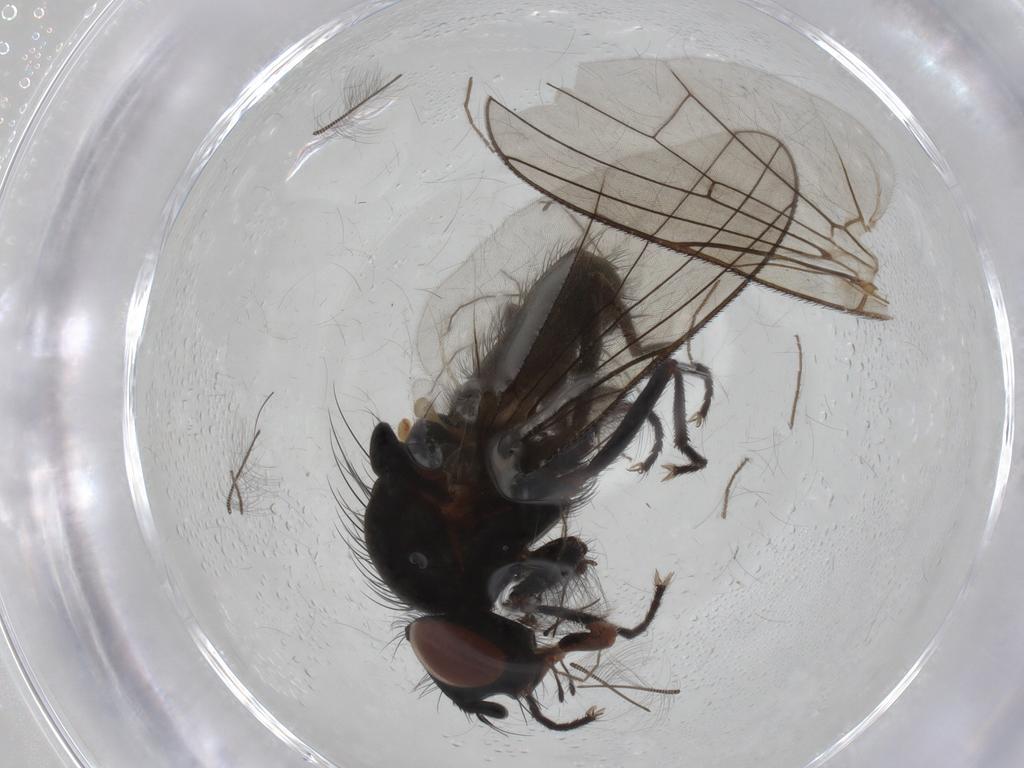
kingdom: Animalia
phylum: Arthropoda
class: Insecta
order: Diptera
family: Anthomyiidae
